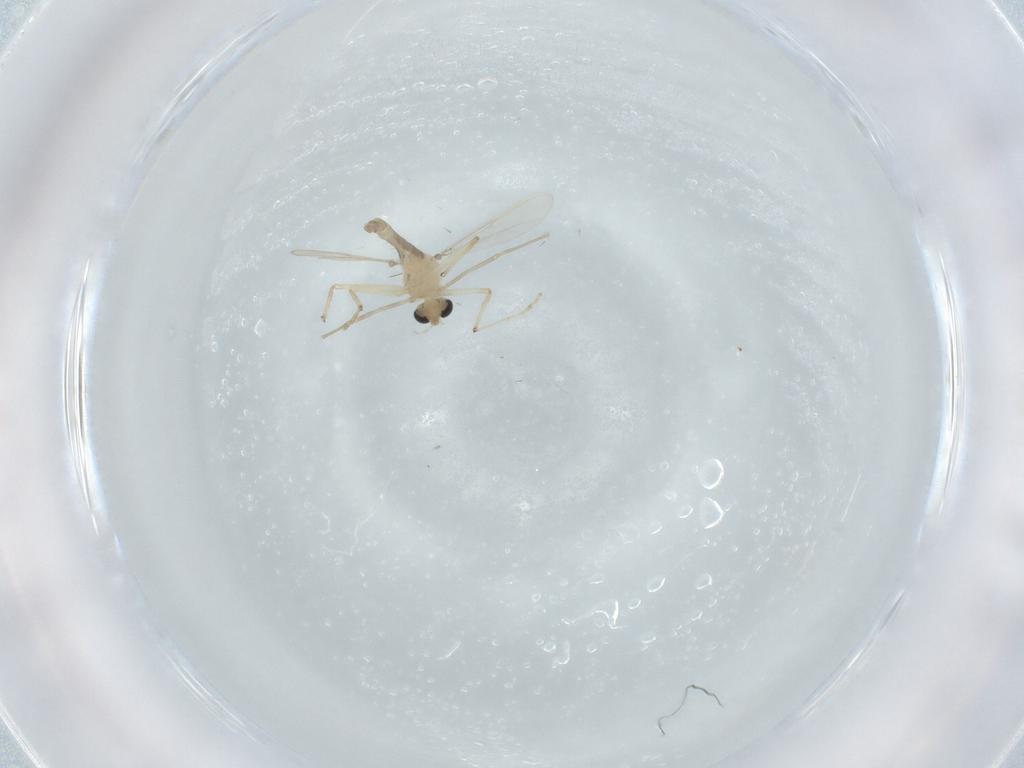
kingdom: Animalia
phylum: Arthropoda
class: Insecta
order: Diptera
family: Chironomidae
